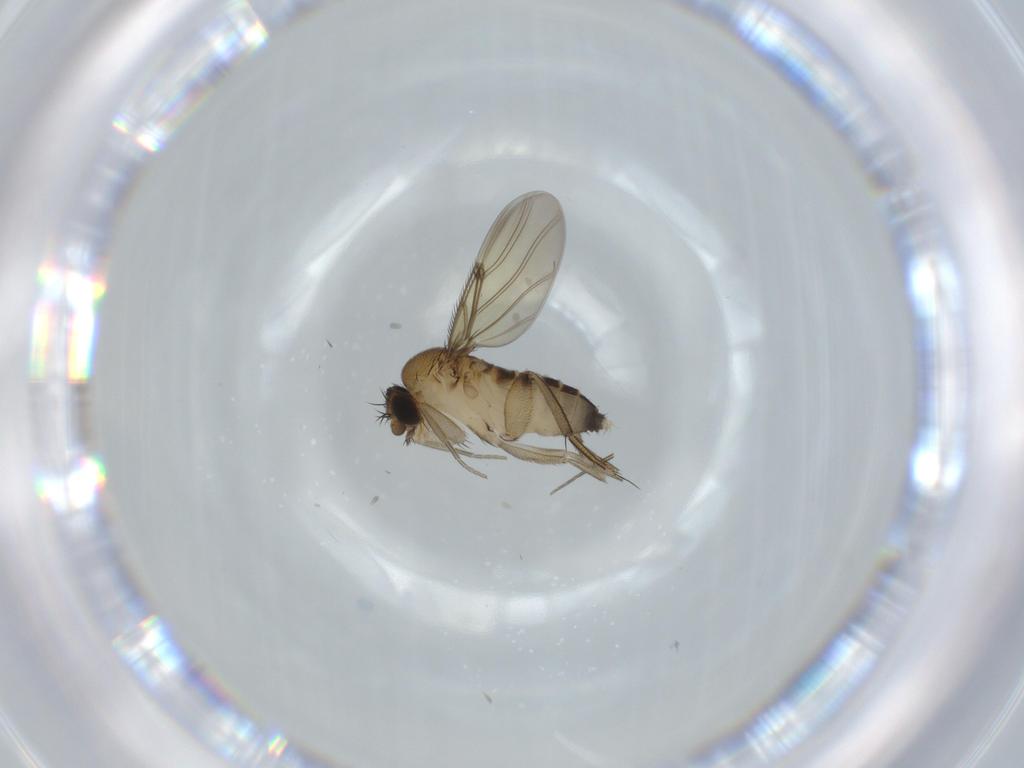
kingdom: Animalia
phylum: Arthropoda
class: Insecta
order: Diptera
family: Phoridae
